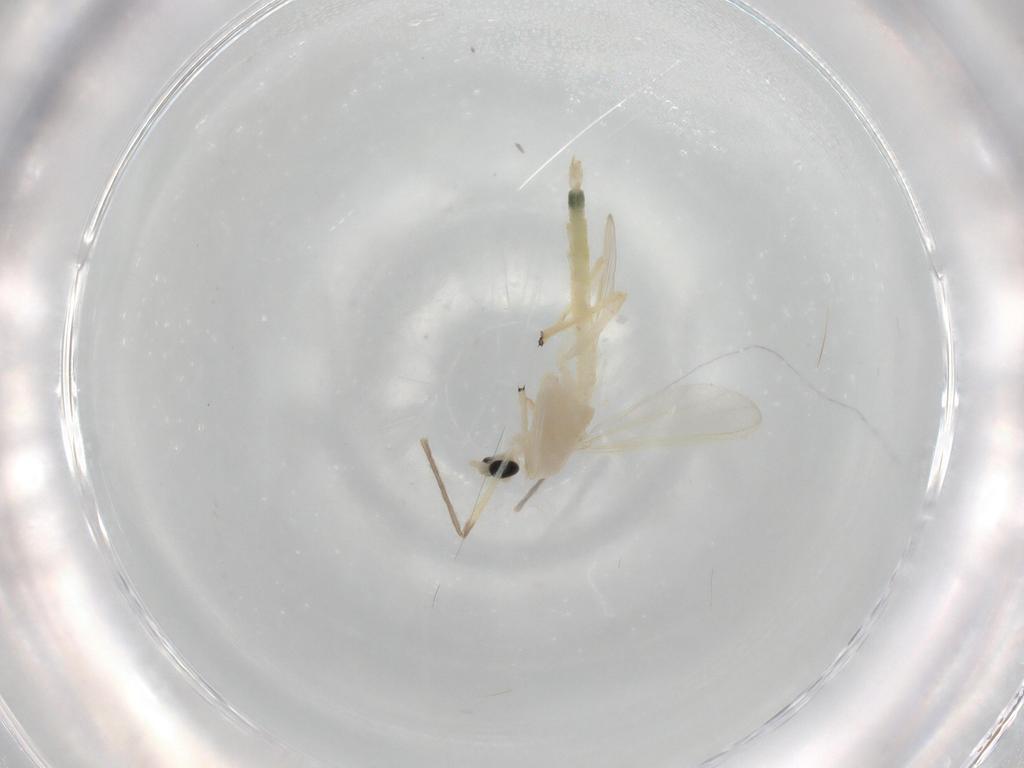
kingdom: Animalia
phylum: Arthropoda
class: Insecta
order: Diptera
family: Chironomidae
